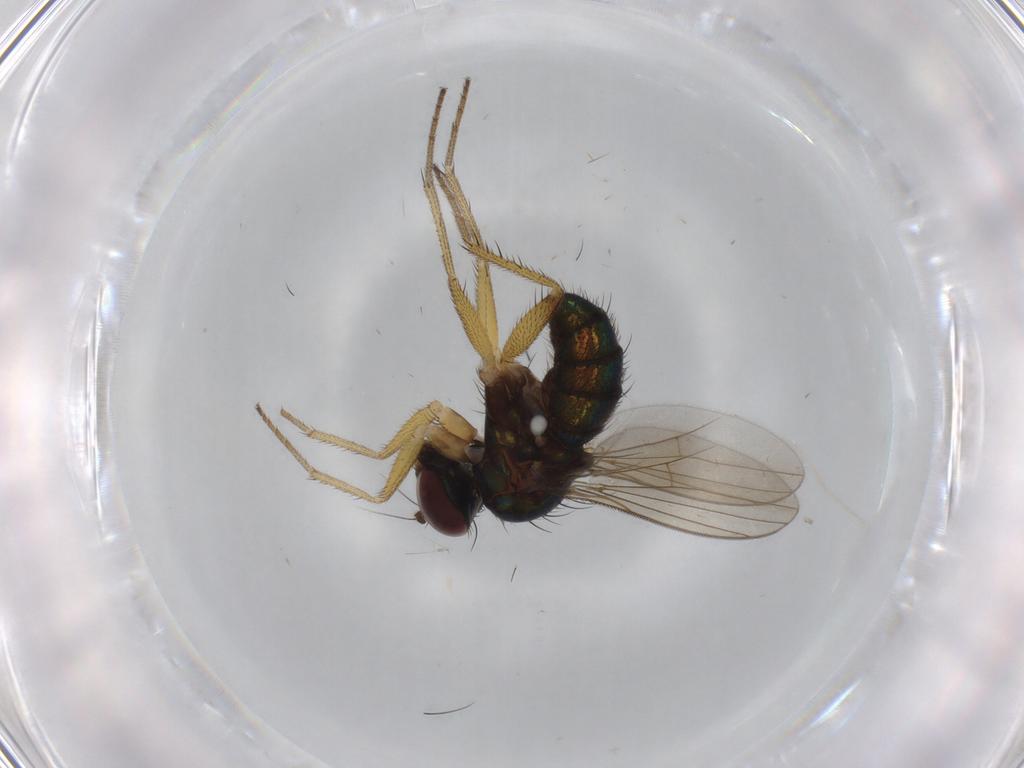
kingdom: Animalia
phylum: Arthropoda
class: Insecta
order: Diptera
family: Dolichopodidae
